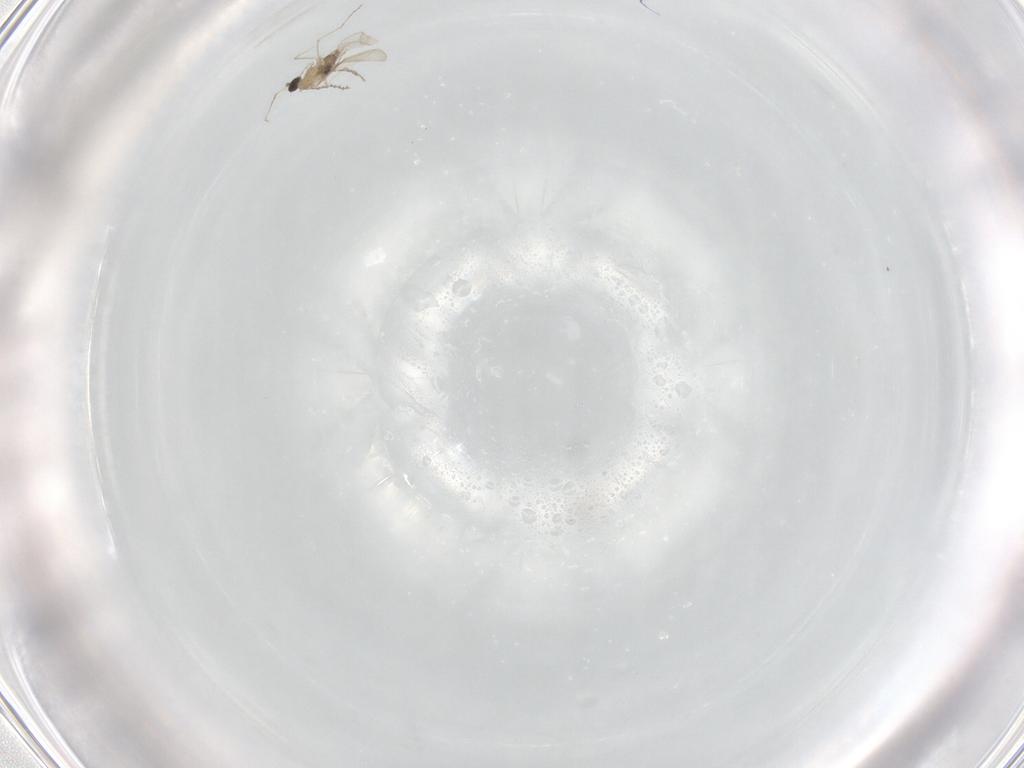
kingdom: Animalia
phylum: Arthropoda
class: Insecta
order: Diptera
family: Cecidomyiidae
